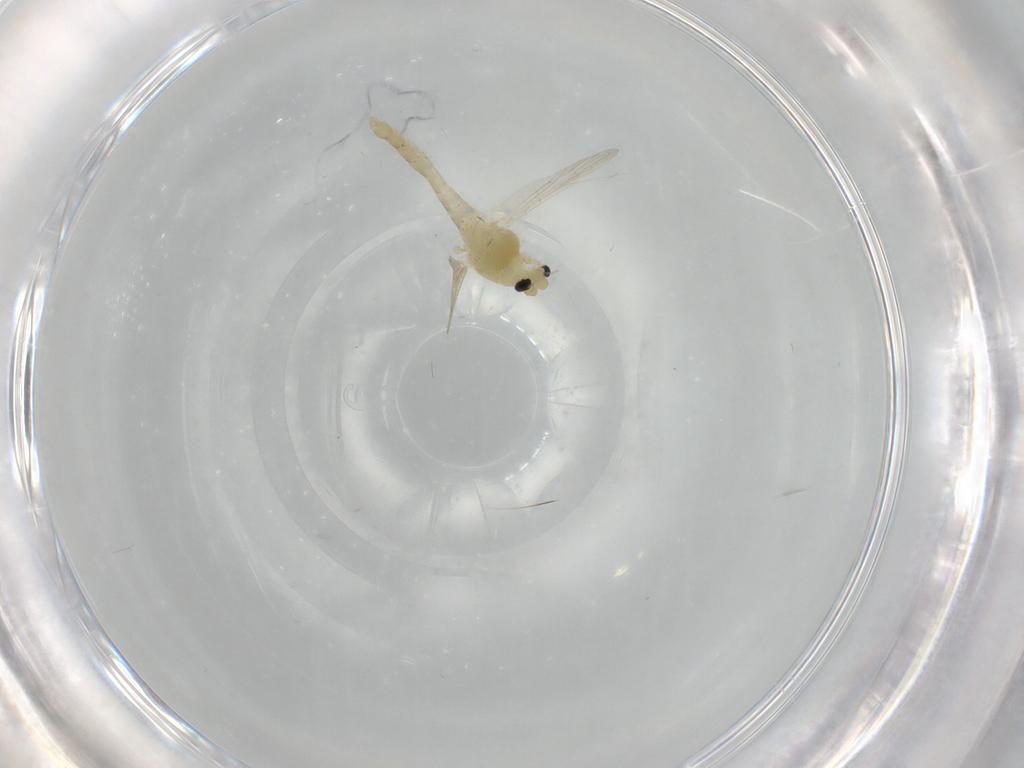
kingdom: Animalia
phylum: Arthropoda
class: Insecta
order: Diptera
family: Chironomidae
